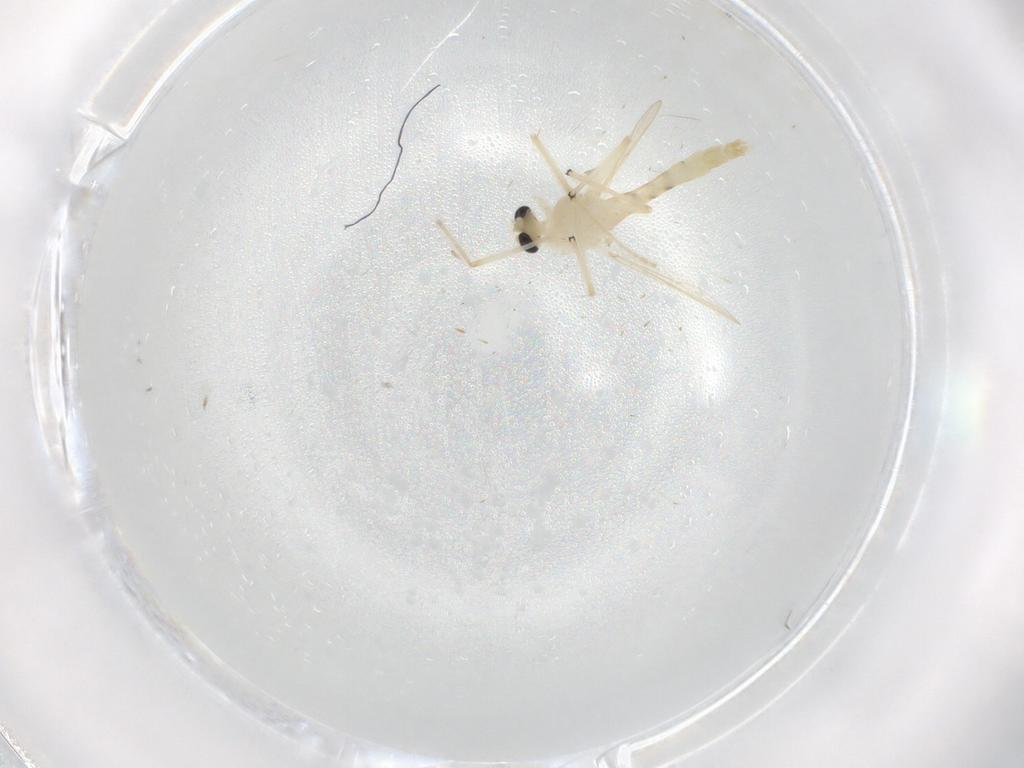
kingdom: Animalia
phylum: Arthropoda
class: Insecta
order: Diptera
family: Chironomidae
